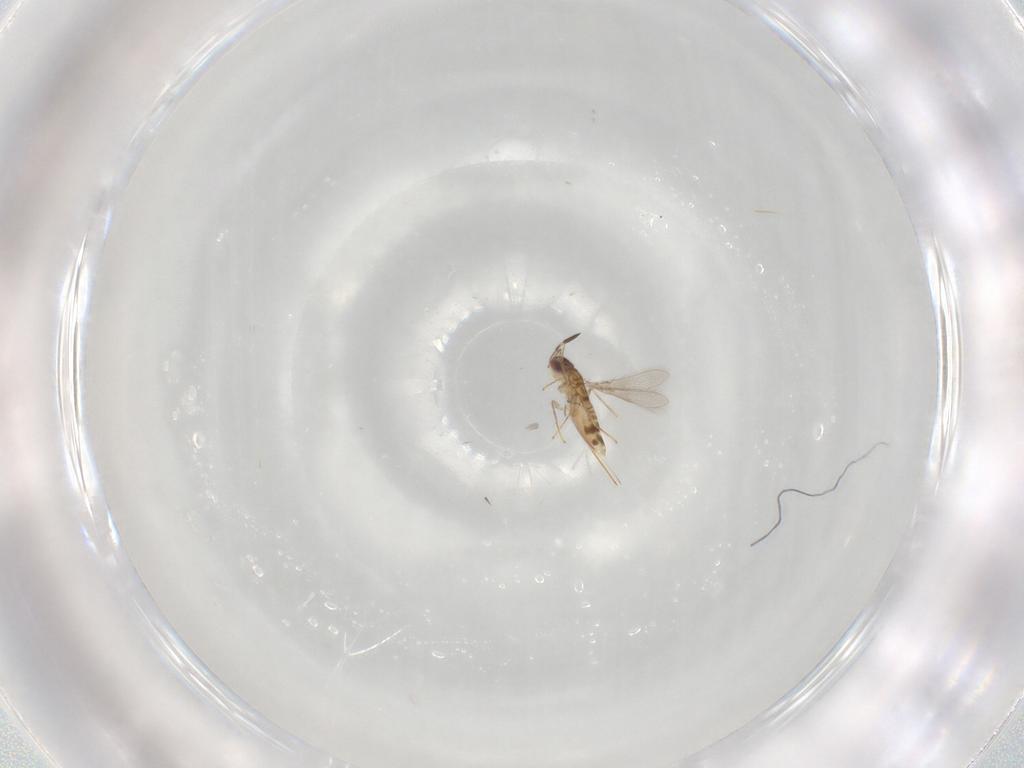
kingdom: Animalia
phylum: Arthropoda
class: Insecta
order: Hymenoptera
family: Mymaridae
